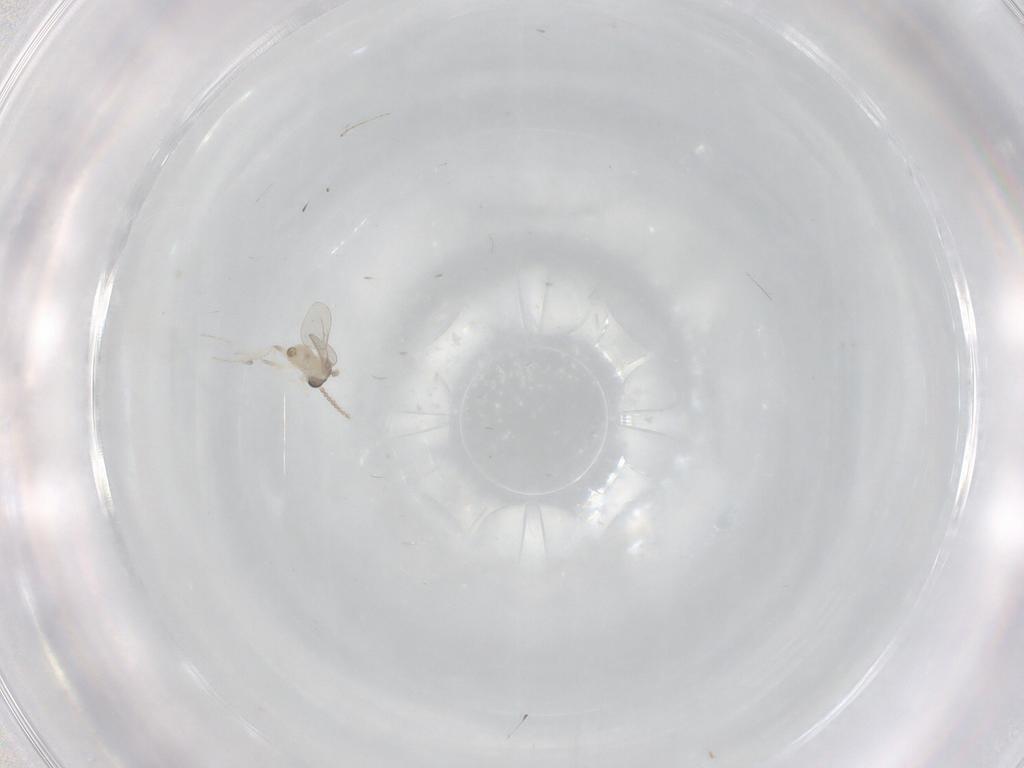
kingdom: Animalia
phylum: Arthropoda
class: Insecta
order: Diptera
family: Cecidomyiidae
